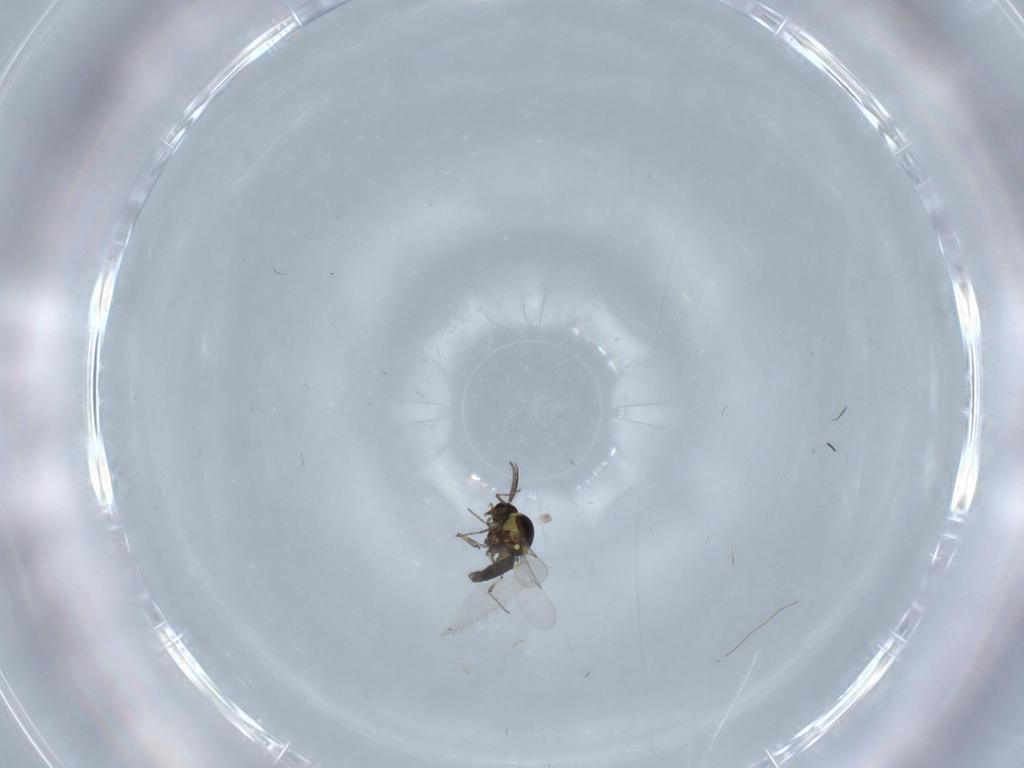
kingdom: Animalia
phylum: Arthropoda
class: Insecta
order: Diptera
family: Ceratopogonidae
